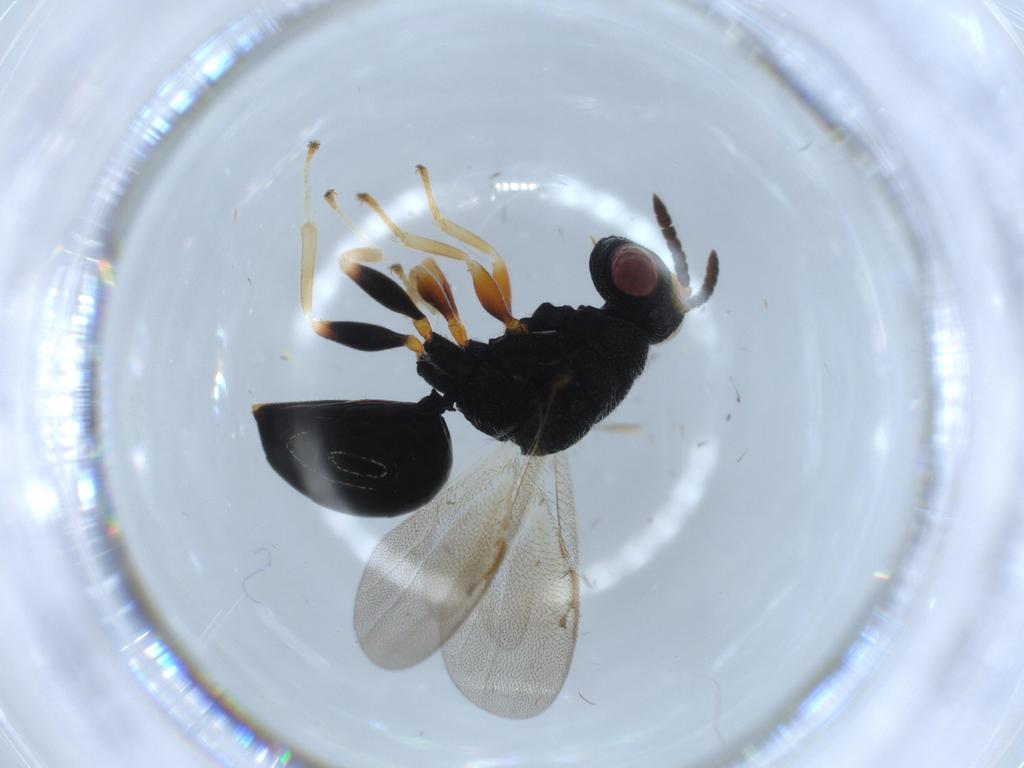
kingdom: Animalia
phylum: Arthropoda
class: Insecta
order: Hymenoptera
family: Bethylidae
